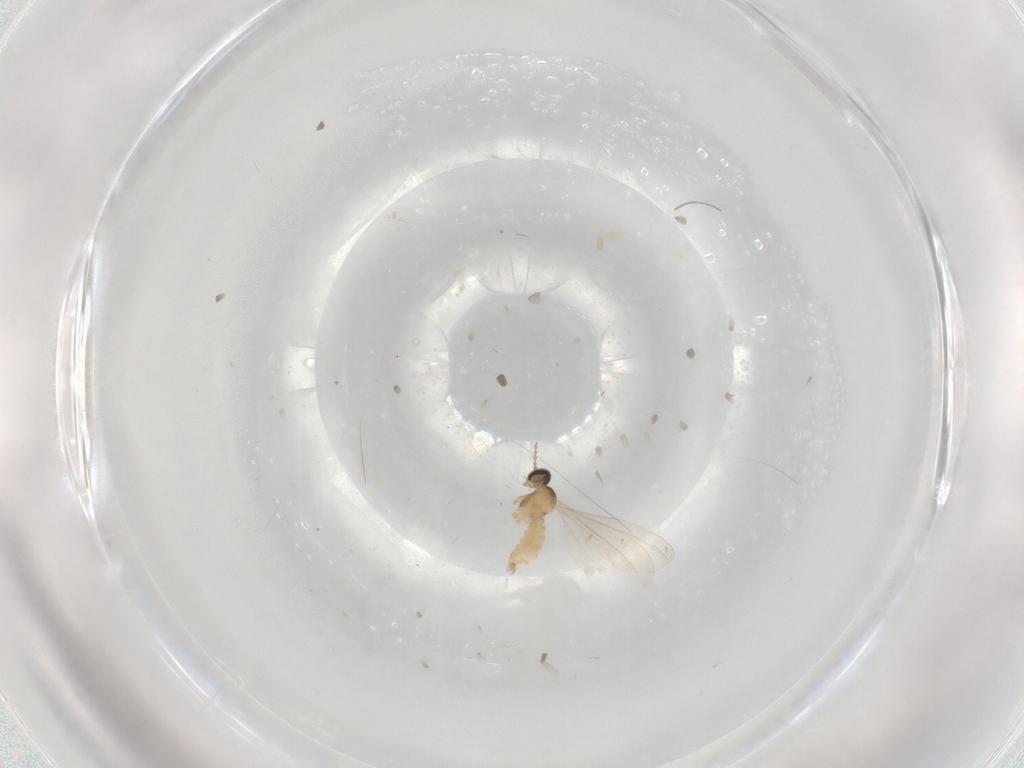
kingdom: Animalia
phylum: Arthropoda
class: Insecta
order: Diptera
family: Cecidomyiidae
